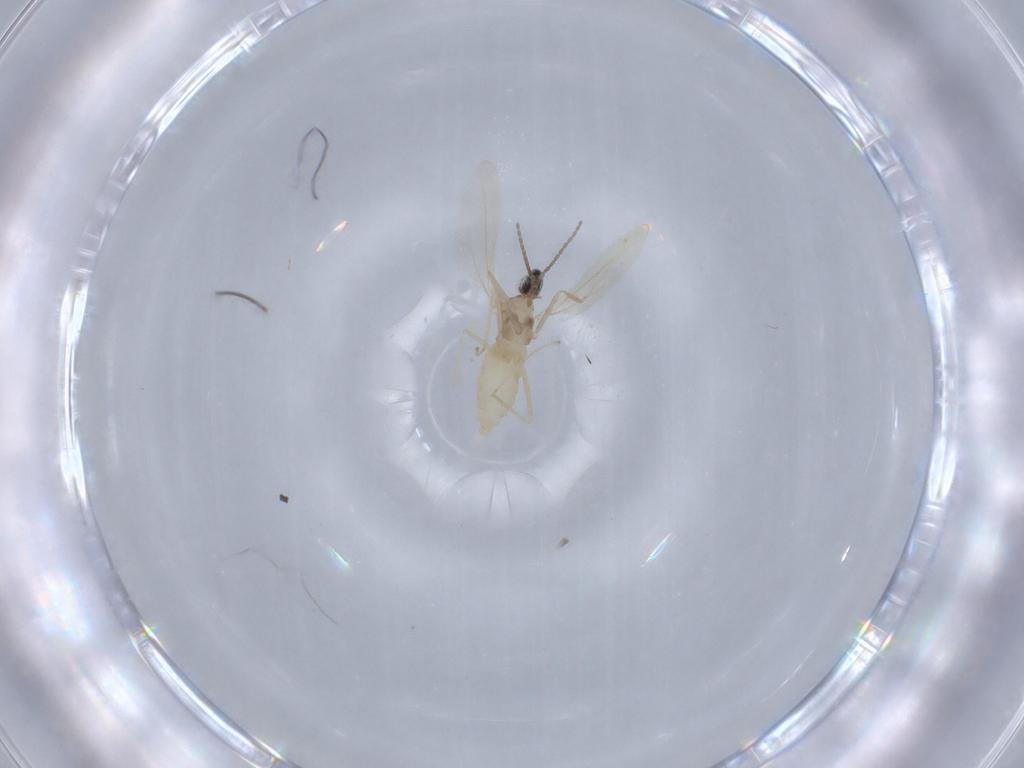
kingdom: Animalia
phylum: Arthropoda
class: Insecta
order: Diptera
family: Cecidomyiidae
